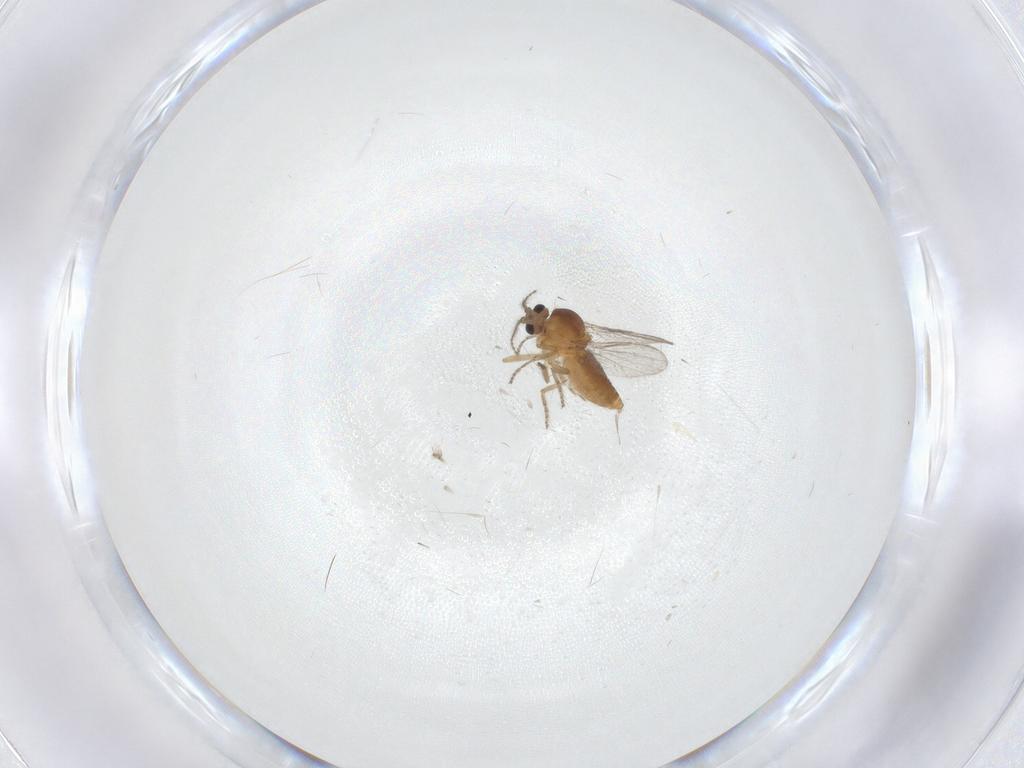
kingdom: Animalia
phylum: Arthropoda
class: Insecta
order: Diptera
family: Ceratopogonidae
